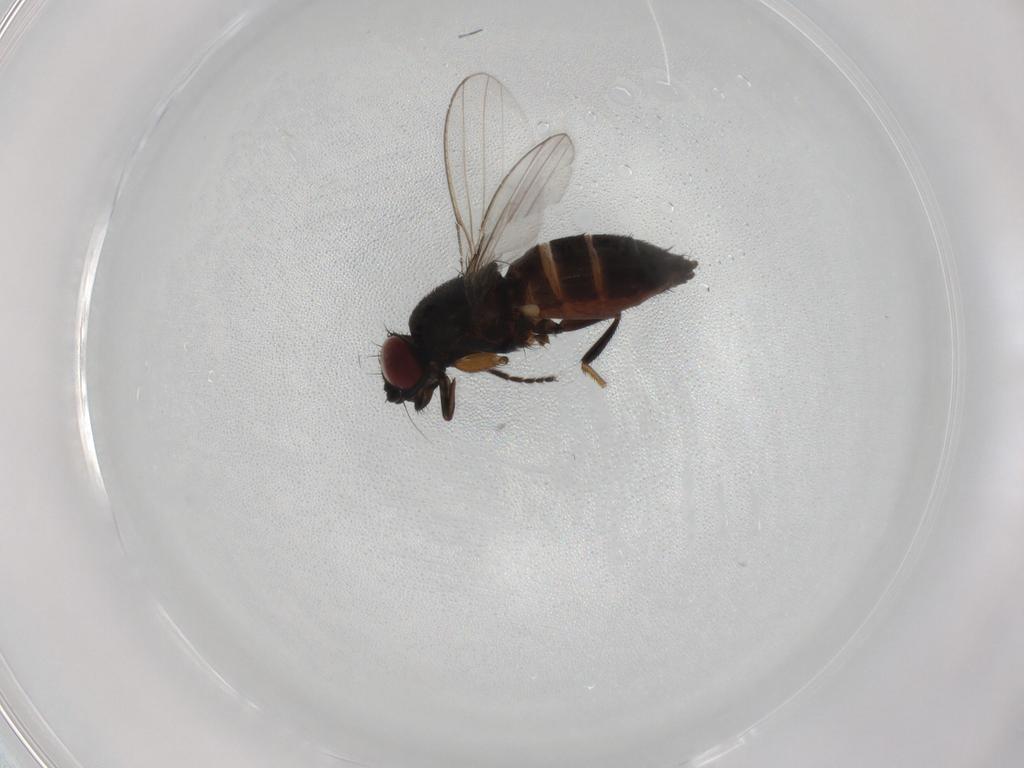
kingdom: Animalia
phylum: Arthropoda
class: Insecta
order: Diptera
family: Milichiidae
